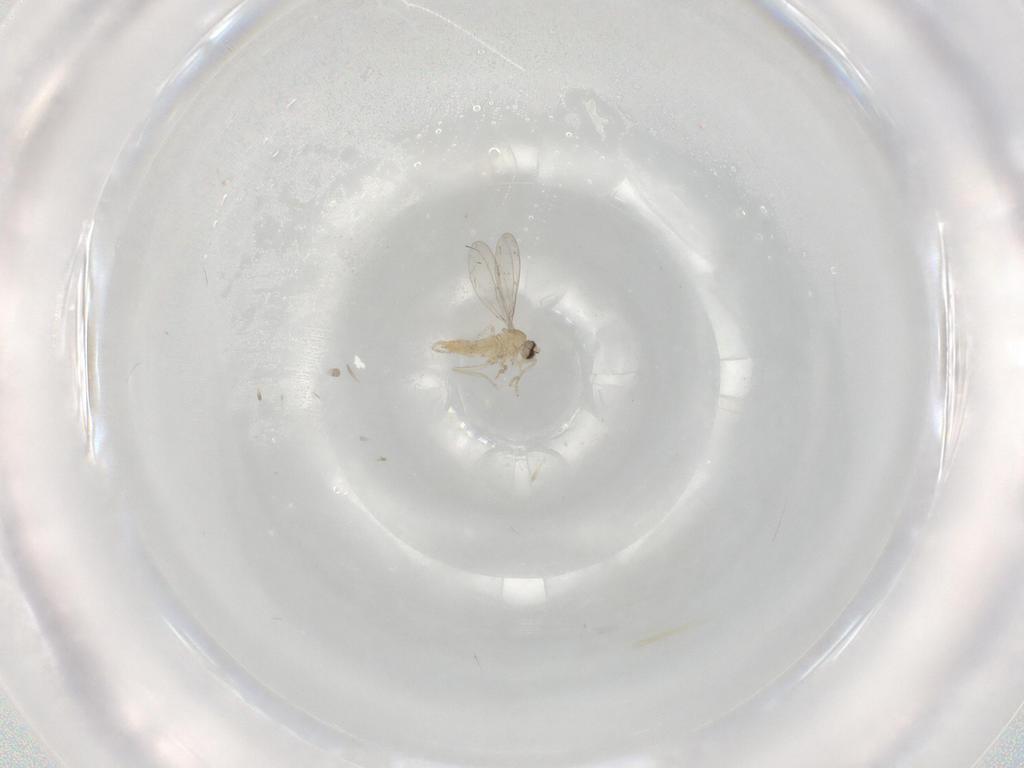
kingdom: Animalia
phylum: Arthropoda
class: Insecta
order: Diptera
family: Cecidomyiidae
